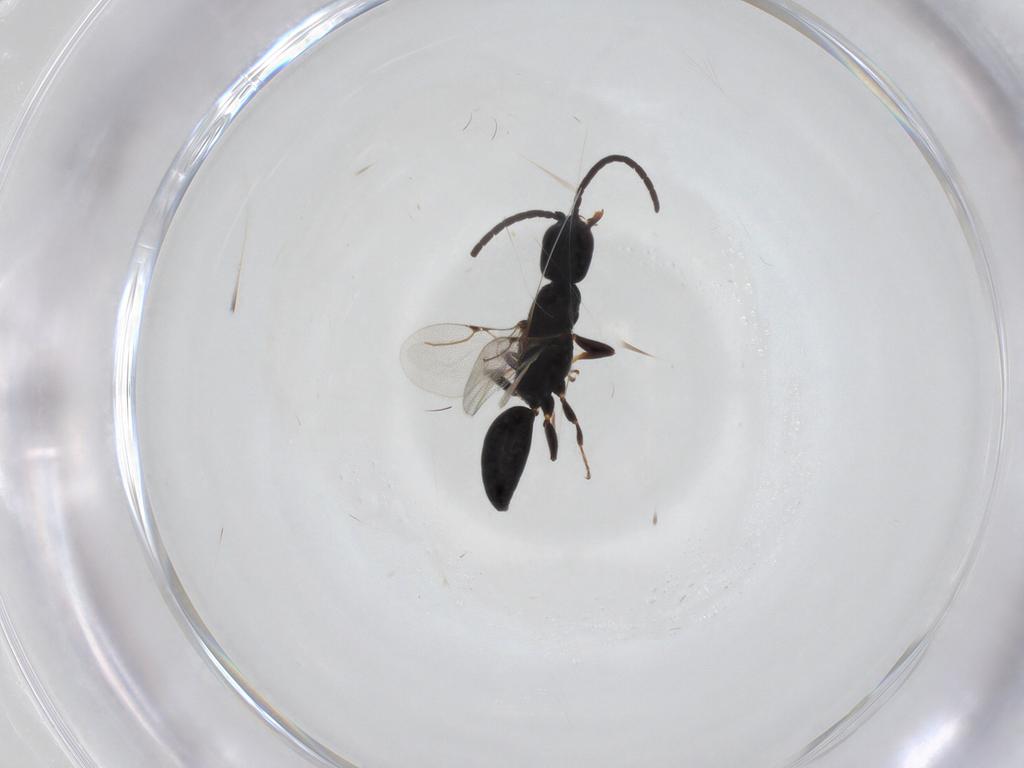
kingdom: Animalia
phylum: Arthropoda
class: Insecta
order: Hymenoptera
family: Bethylidae
